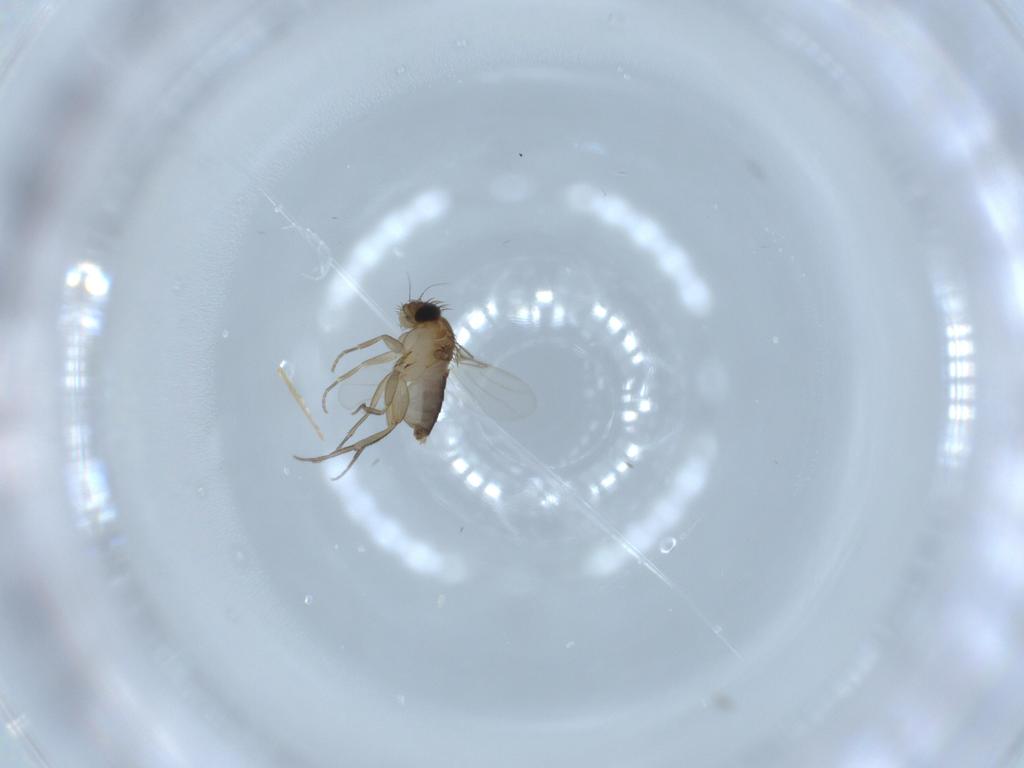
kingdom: Animalia
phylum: Arthropoda
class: Insecta
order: Diptera
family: Phoridae
